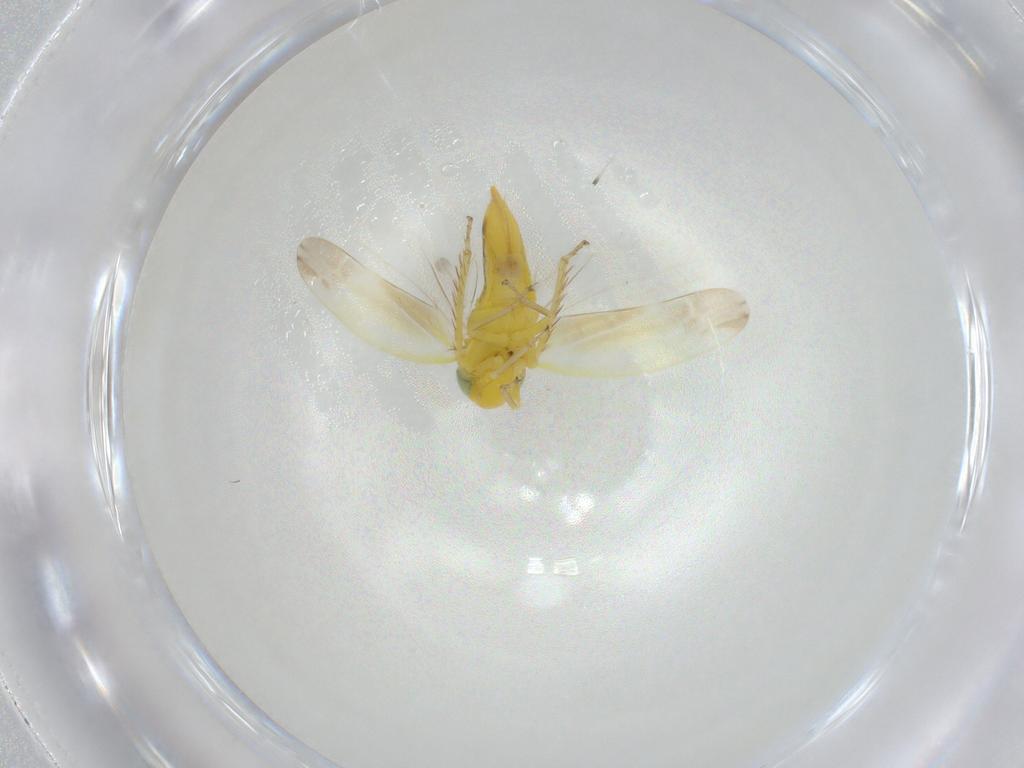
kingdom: Animalia
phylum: Arthropoda
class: Insecta
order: Hemiptera
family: Cicadellidae
